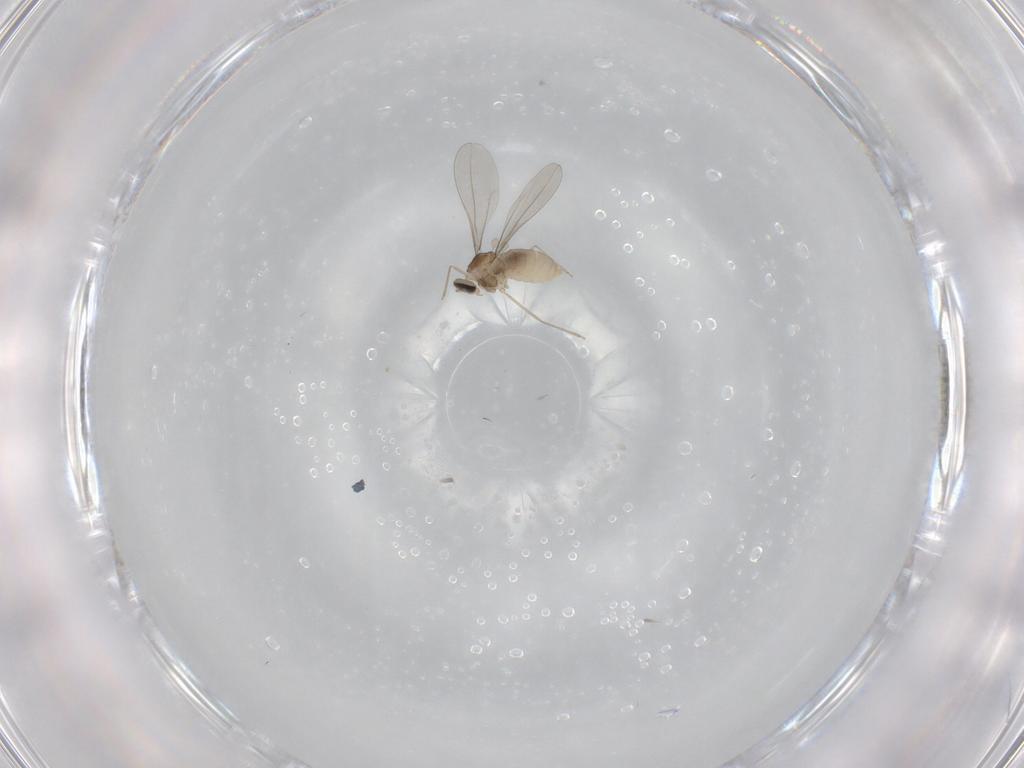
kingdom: Animalia
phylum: Arthropoda
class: Insecta
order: Diptera
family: Cecidomyiidae
